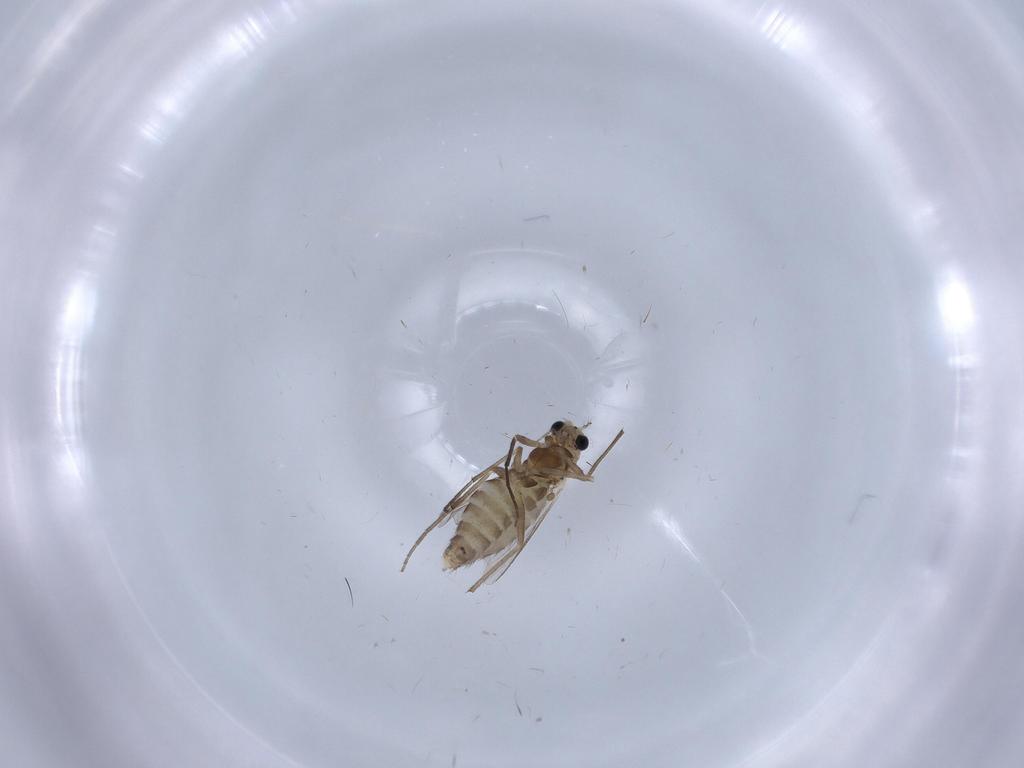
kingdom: Animalia
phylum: Arthropoda
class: Insecta
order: Diptera
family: Chironomidae
